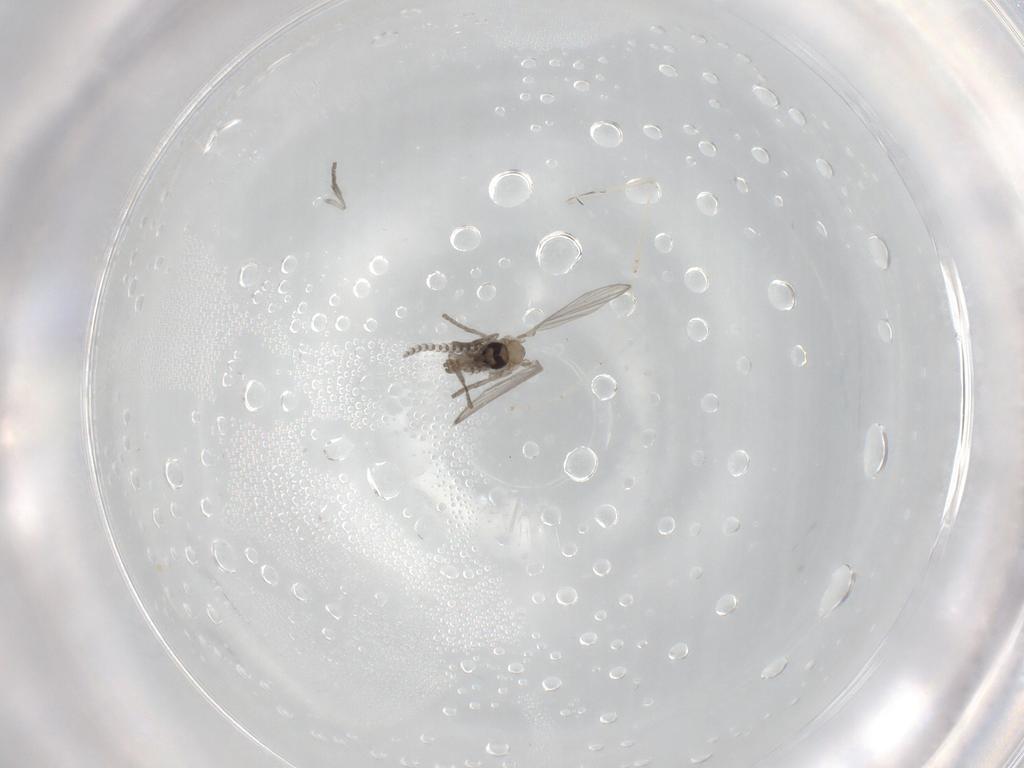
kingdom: Animalia
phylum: Arthropoda
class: Insecta
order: Diptera
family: Psychodidae
